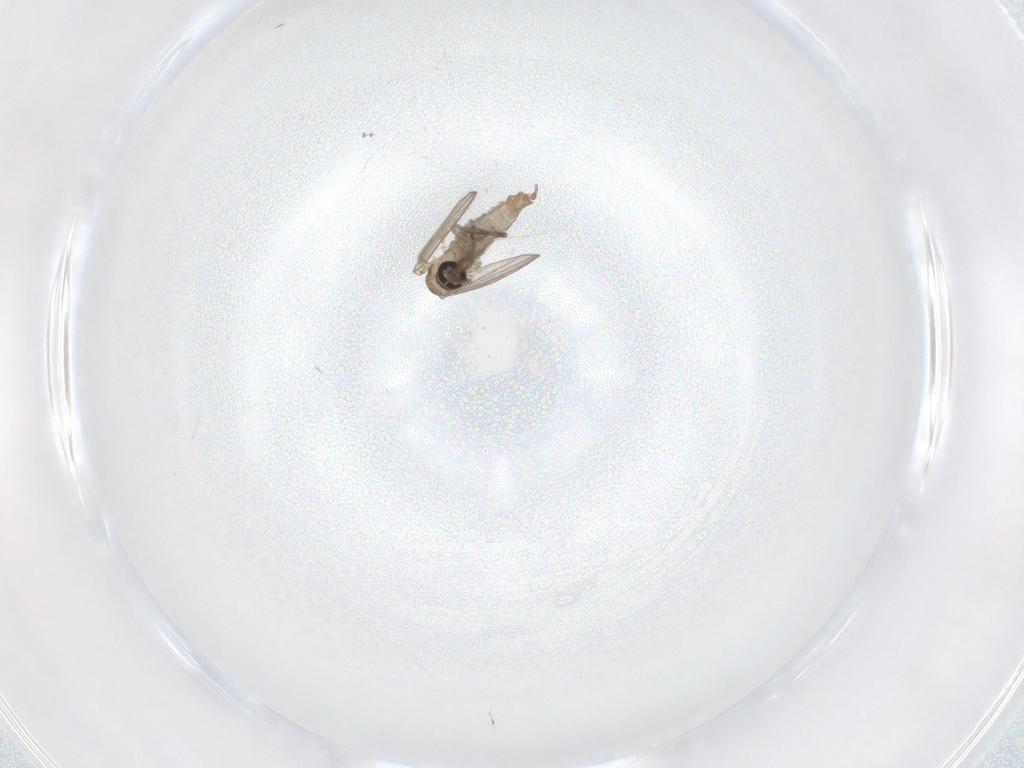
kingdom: Animalia
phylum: Arthropoda
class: Insecta
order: Diptera
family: Psychodidae
